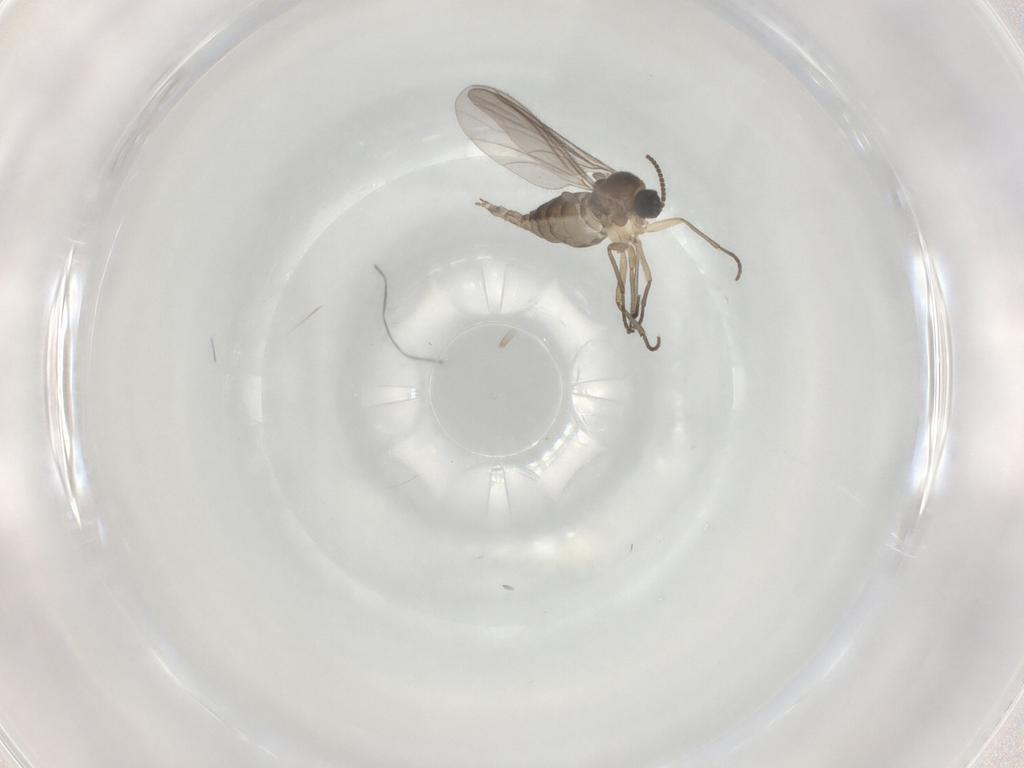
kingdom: Animalia
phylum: Arthropoda
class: Insecta
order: Diptera
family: Sciaridae
